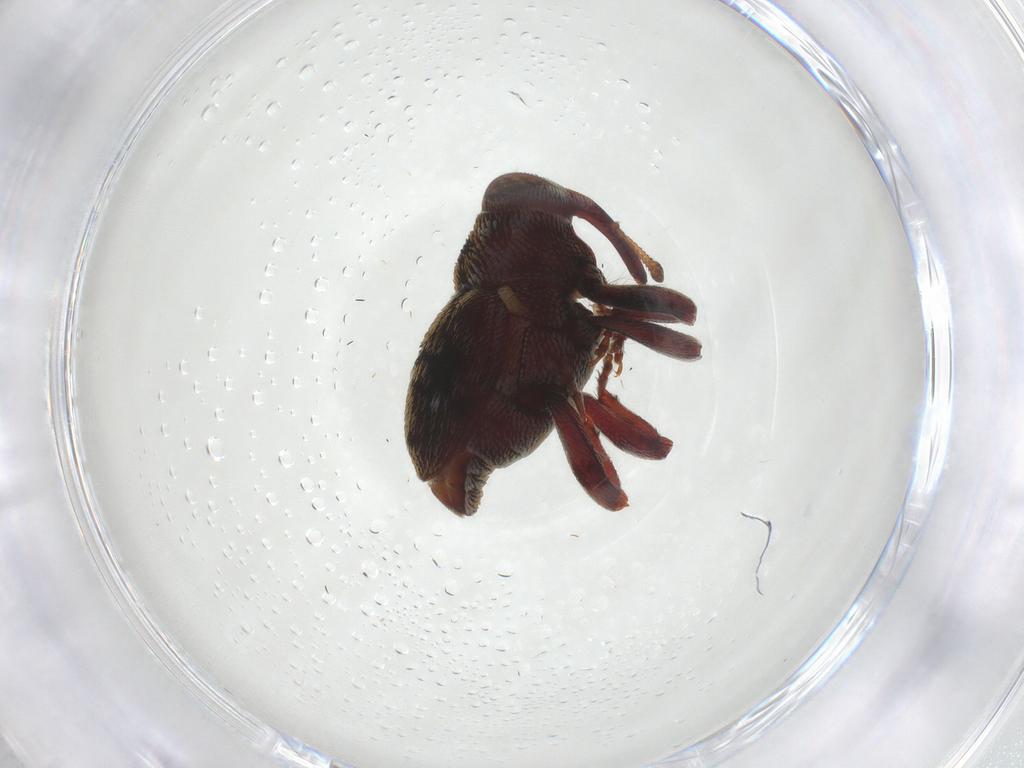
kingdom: Animalia
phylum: Arthropoda
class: Insecta
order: Coleoptera
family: Curculionidae
